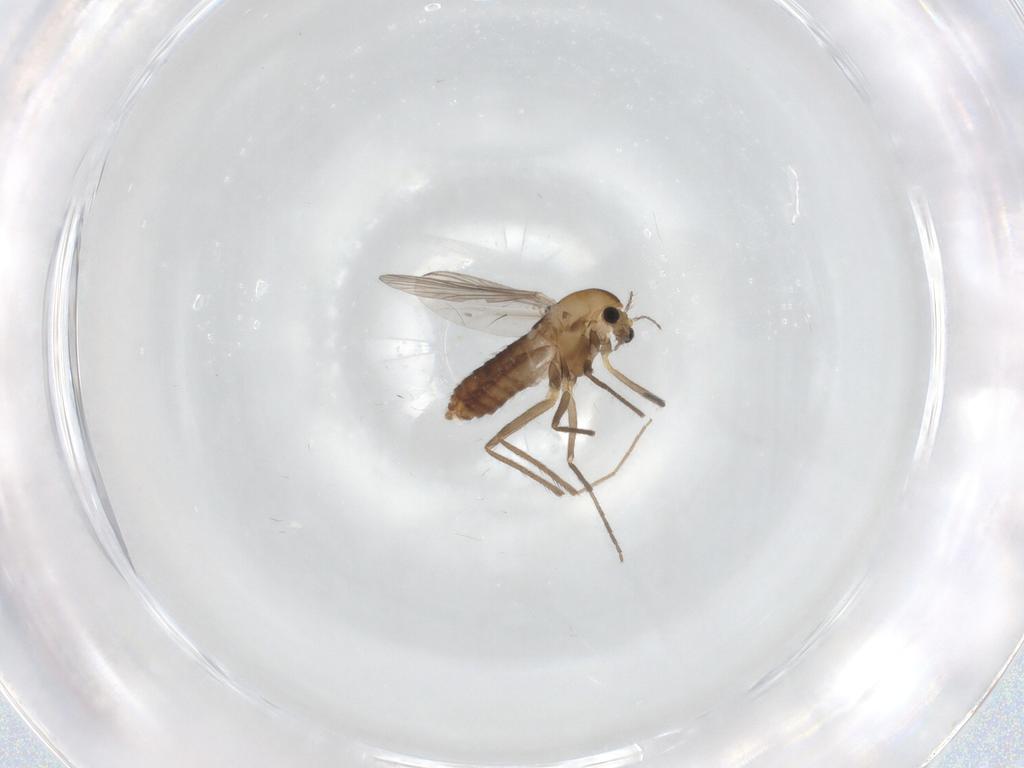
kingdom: Animalia
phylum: Arthropoda
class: Insecta
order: Diptera
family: Chironomidae
